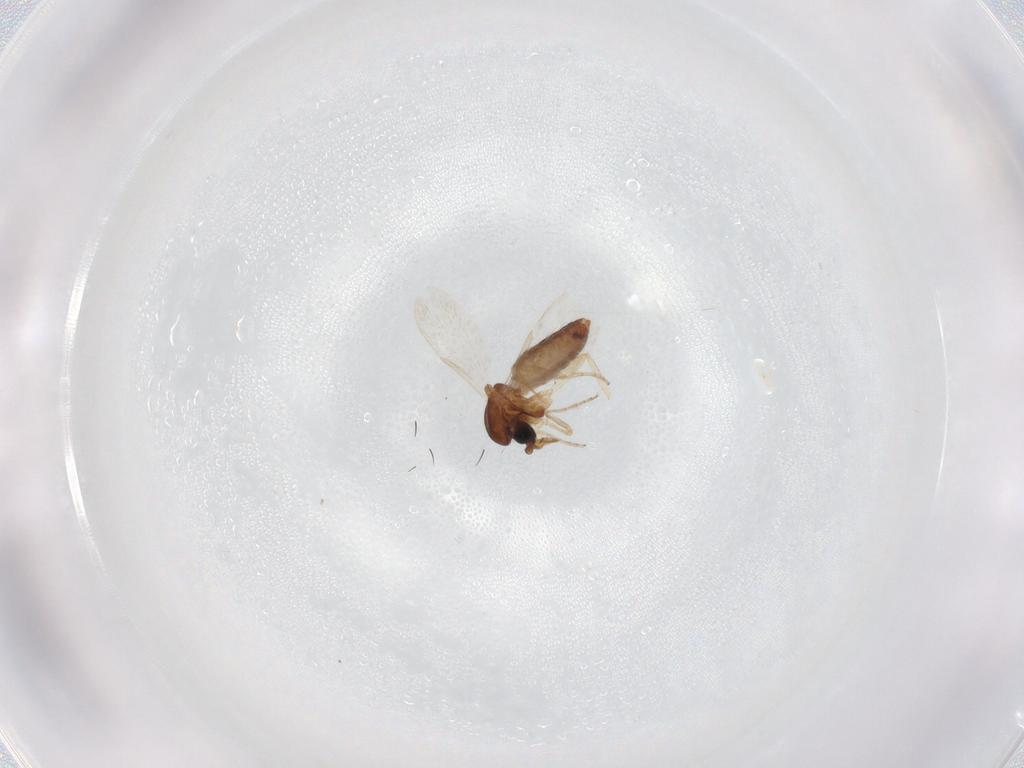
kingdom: Animalia
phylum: Arthropoda
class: Insecta
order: Diptera
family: Ceratopogonidae
